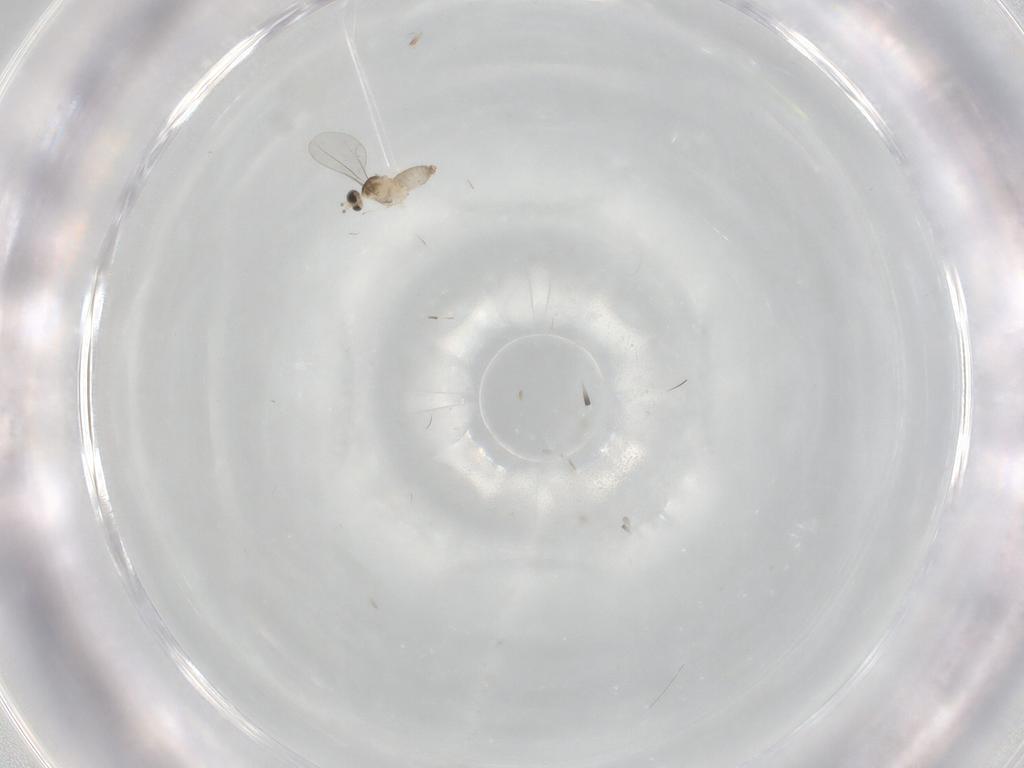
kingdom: Animalia
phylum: Arthropoda
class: Insecta
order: Diptera
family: Cecidomyiidae
